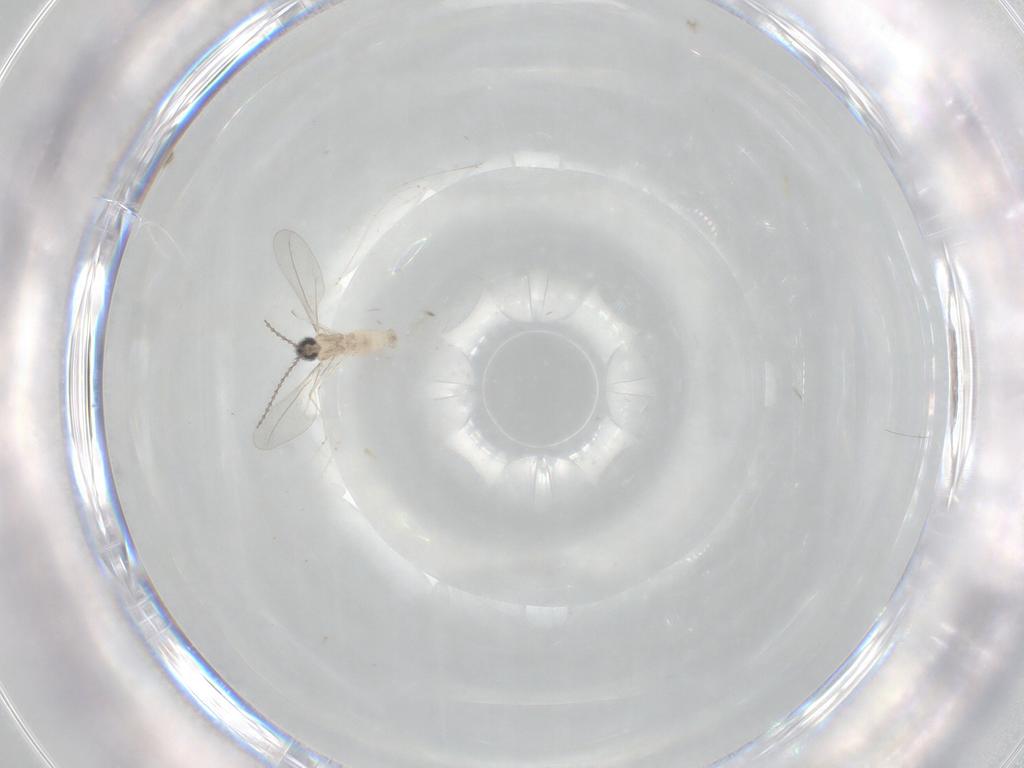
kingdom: Animalia
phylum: Arthropoda
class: Insecta
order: Diptera
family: Cecidomyiidae
